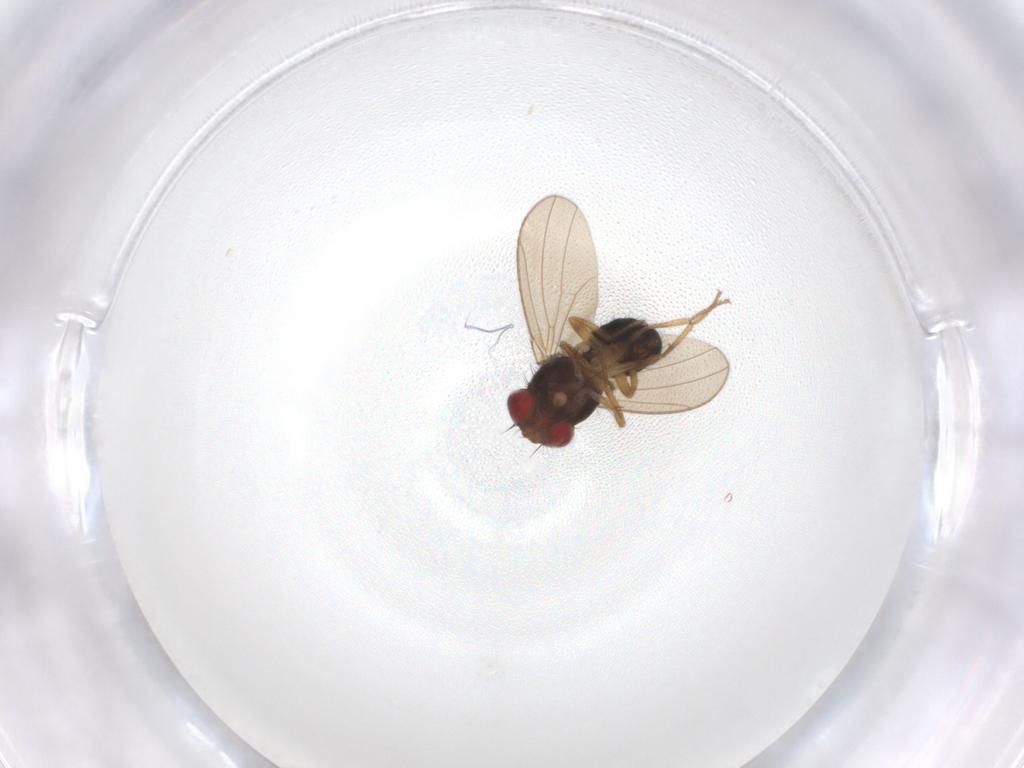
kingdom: Animalia
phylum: Arthropoda
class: Insecta
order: Diptera
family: Drosophilidae
